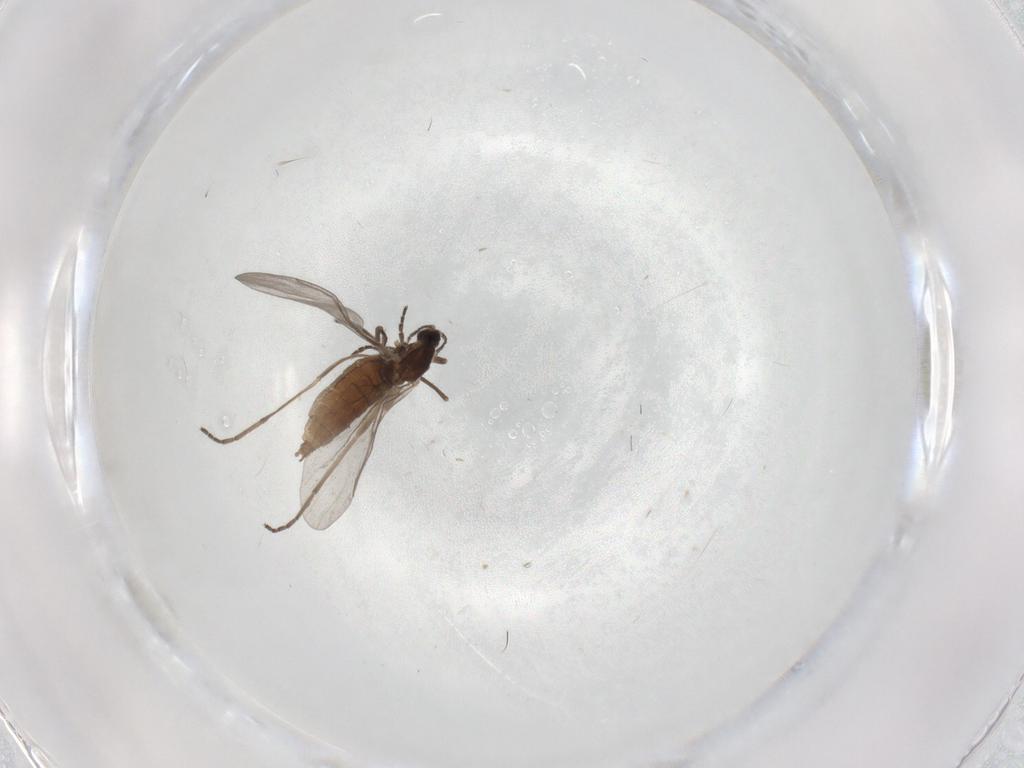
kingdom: Animalia
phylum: Arthropoda
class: Insecta
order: Diptera
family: Cecidomyiidae
